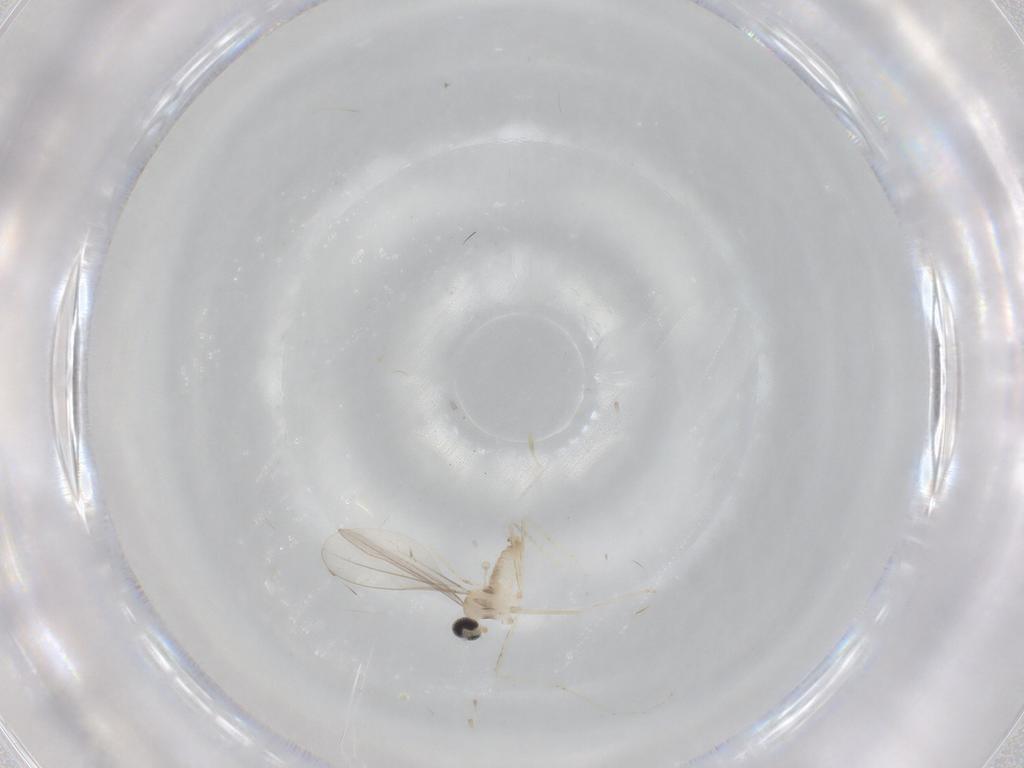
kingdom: Animalia
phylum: Arthropoda
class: Insecta
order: Diptera
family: Cecidomyiidae
